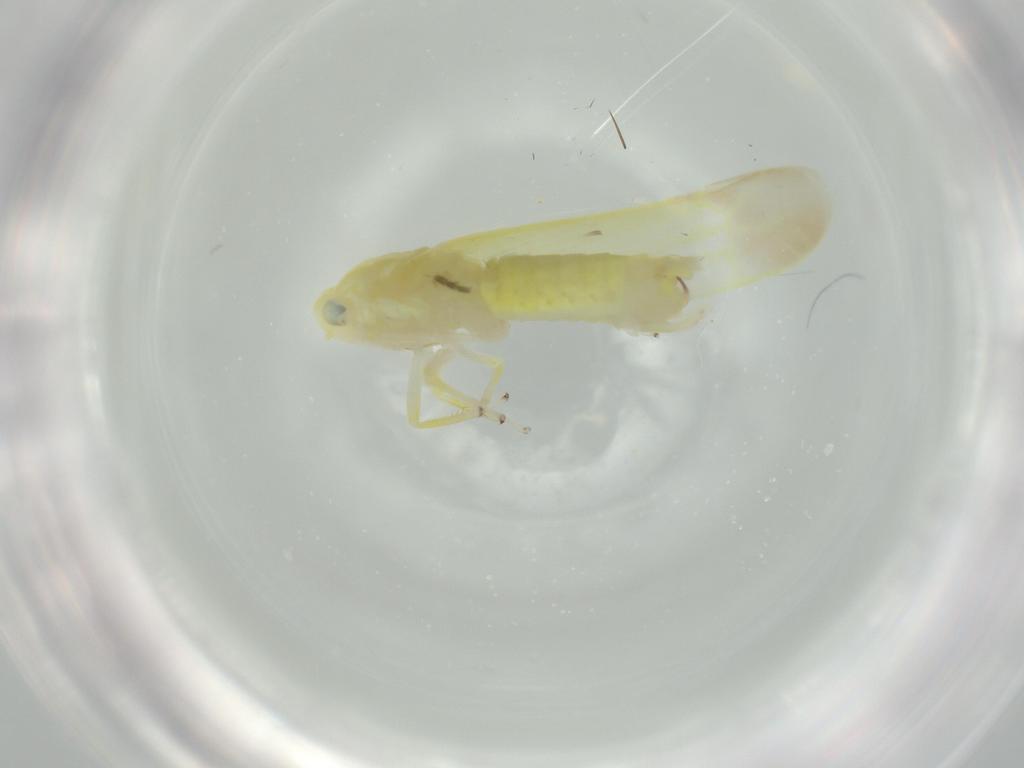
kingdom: Animalia
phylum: Arthropoda
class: Insecta
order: Hemiptera
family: Cicadellidae
